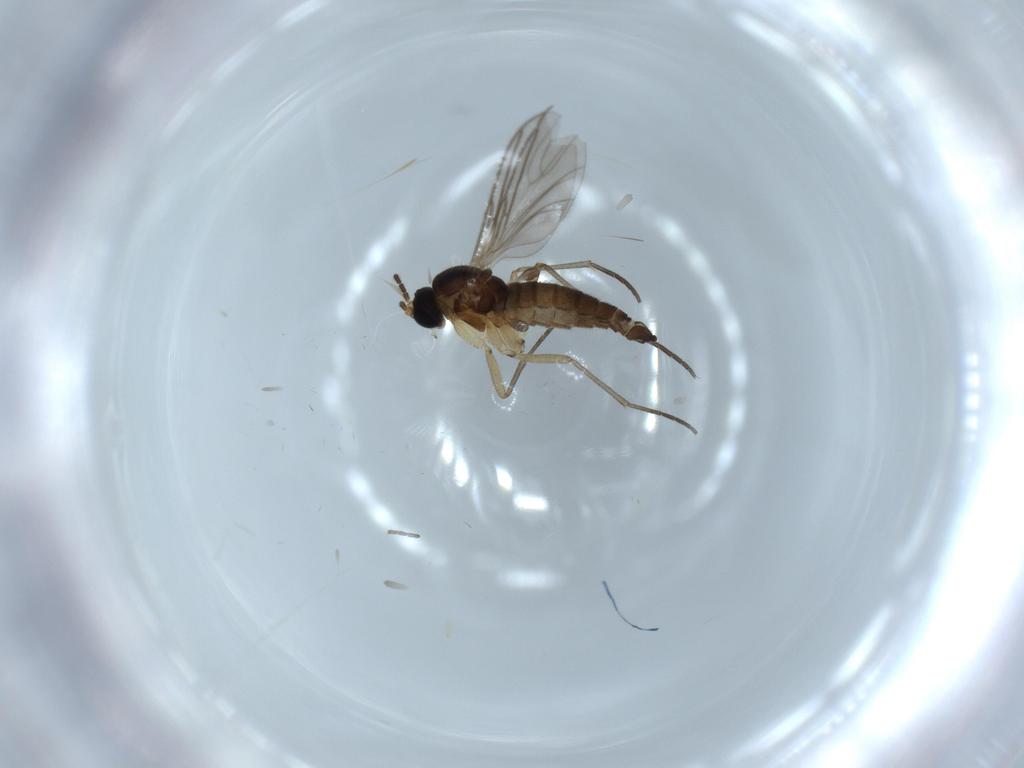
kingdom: Animalia
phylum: Arthropoda
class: Insecta
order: Diptera
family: Sciaridae
